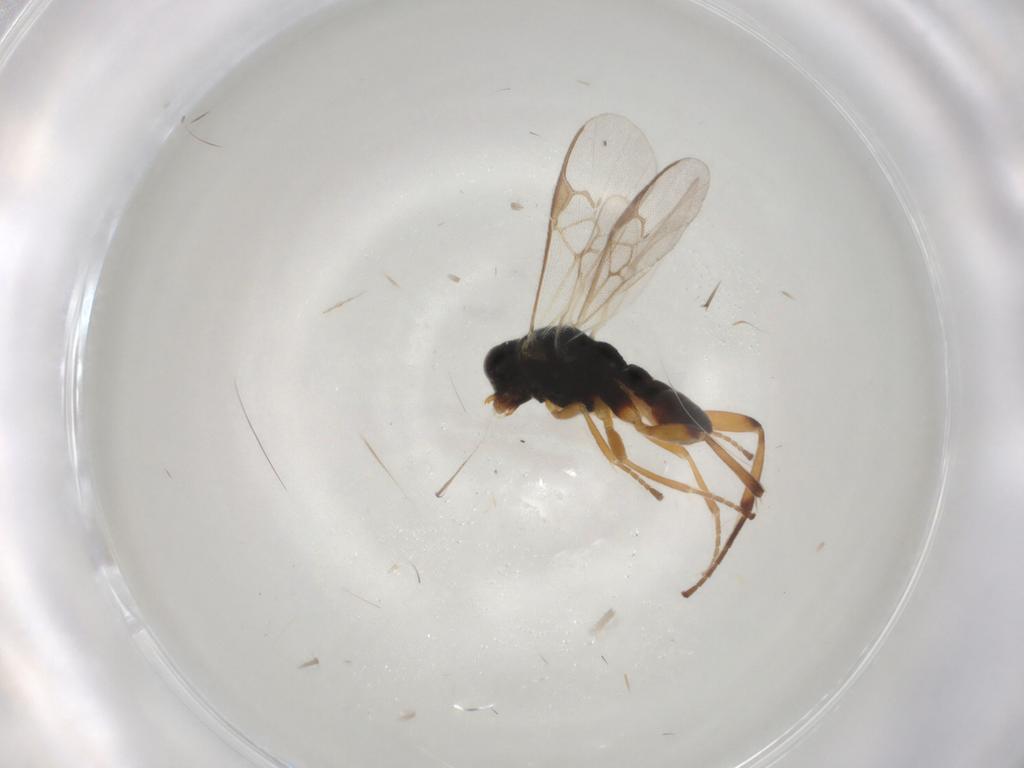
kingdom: Animalia
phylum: Arthropoda
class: Insecta
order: Hymenoptera
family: Braconidae
